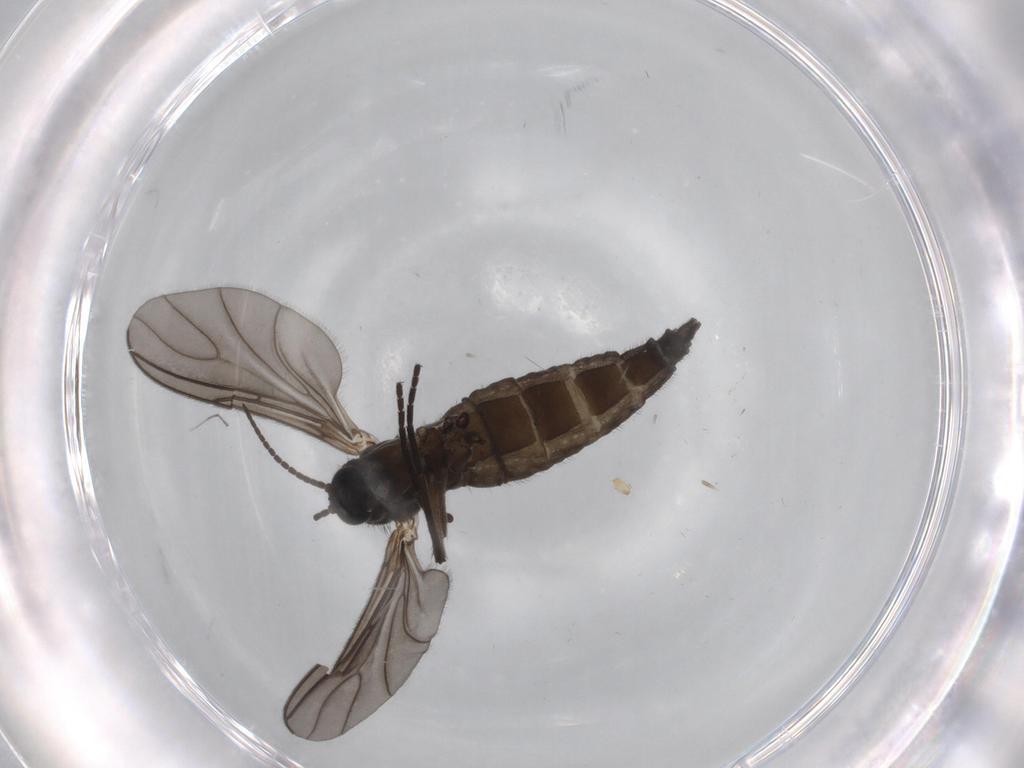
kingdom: Animalia
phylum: Arthropoda
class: Insecta
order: Diptera
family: Sciaridae
